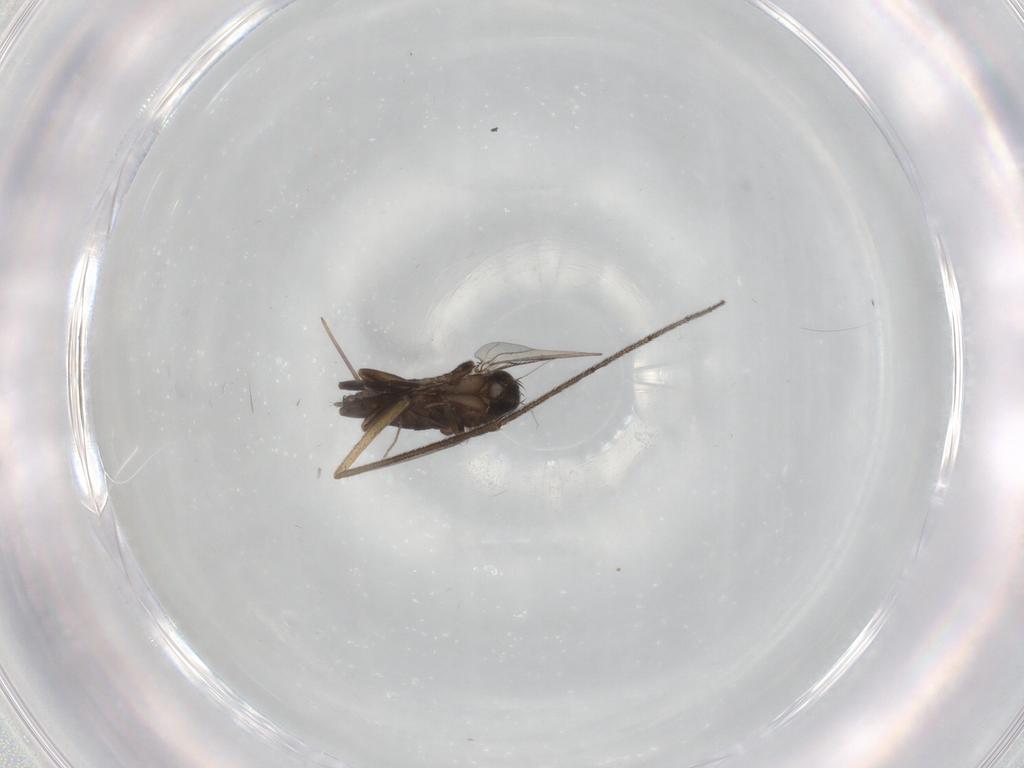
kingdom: Animalia
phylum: Arthropoda
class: Insecta
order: Diptera
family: Phoridae
